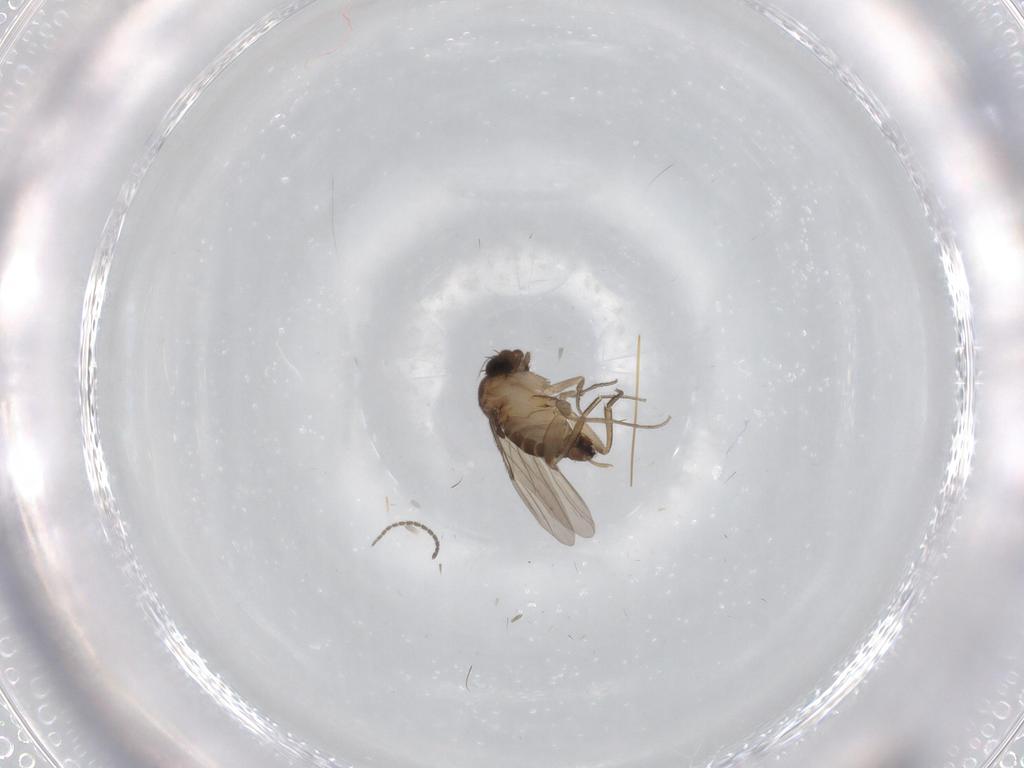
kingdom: Animalia
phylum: Arthropoda
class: Insecta
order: Diptera
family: Phoridae
